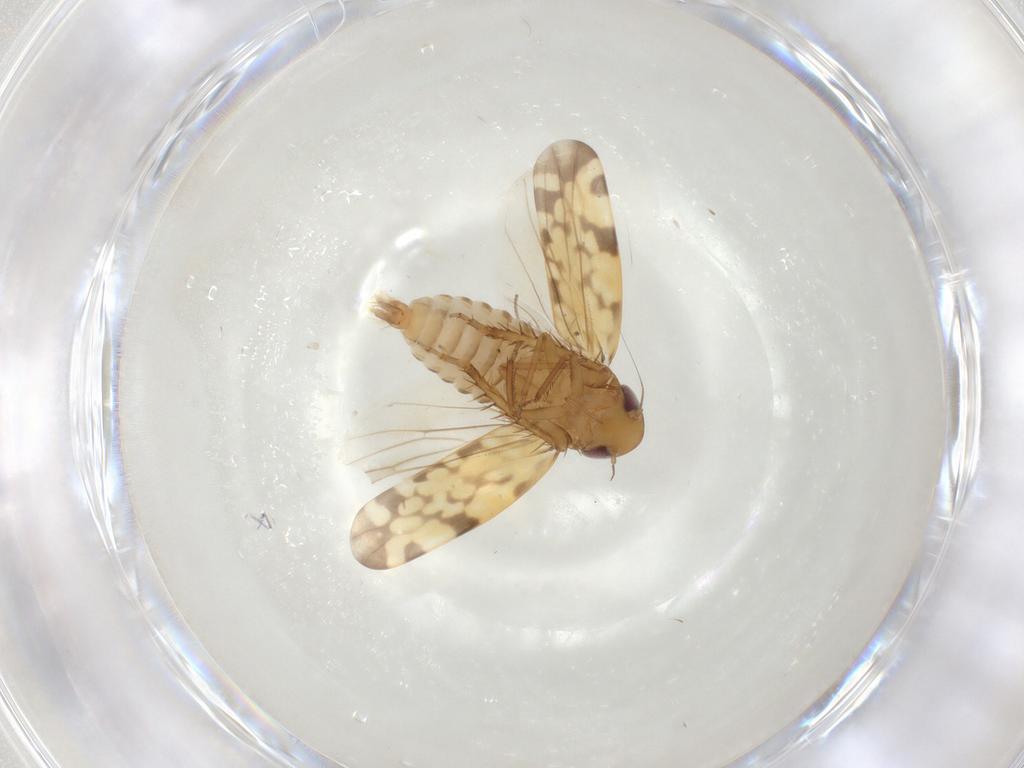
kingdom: Animalia
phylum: Arthropoda
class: Insecta
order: Hemiptera
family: Cicadellidae
